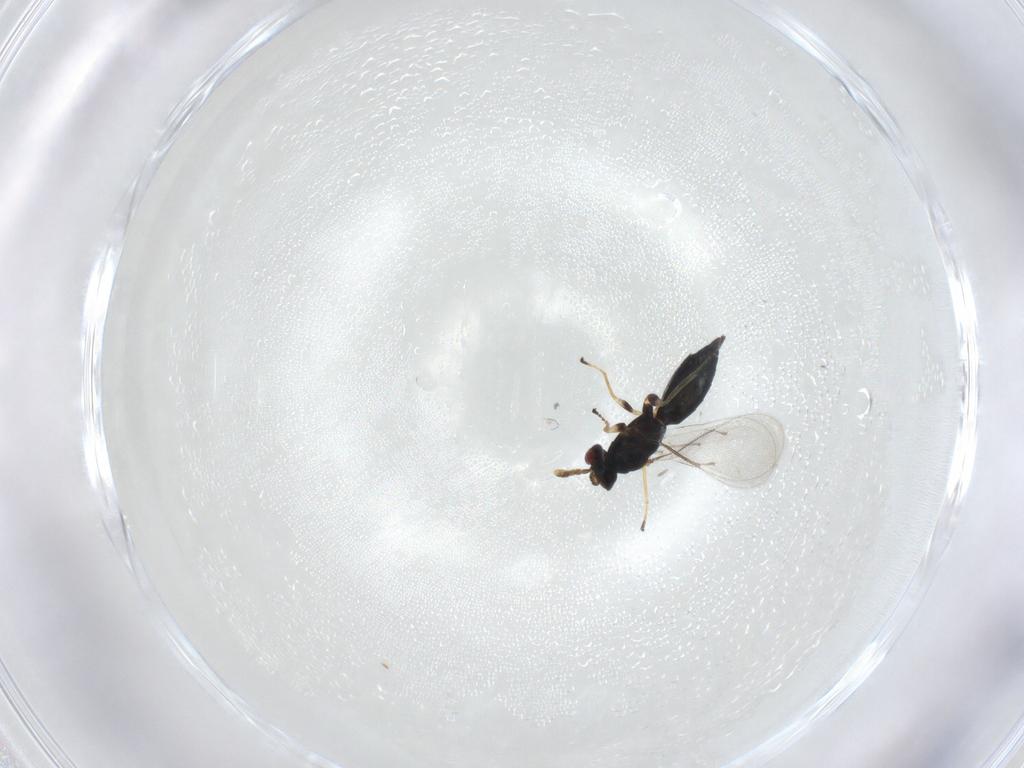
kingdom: Animalia
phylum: Arthropoda
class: Insecta
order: Hymenoptera
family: Eulophidae
